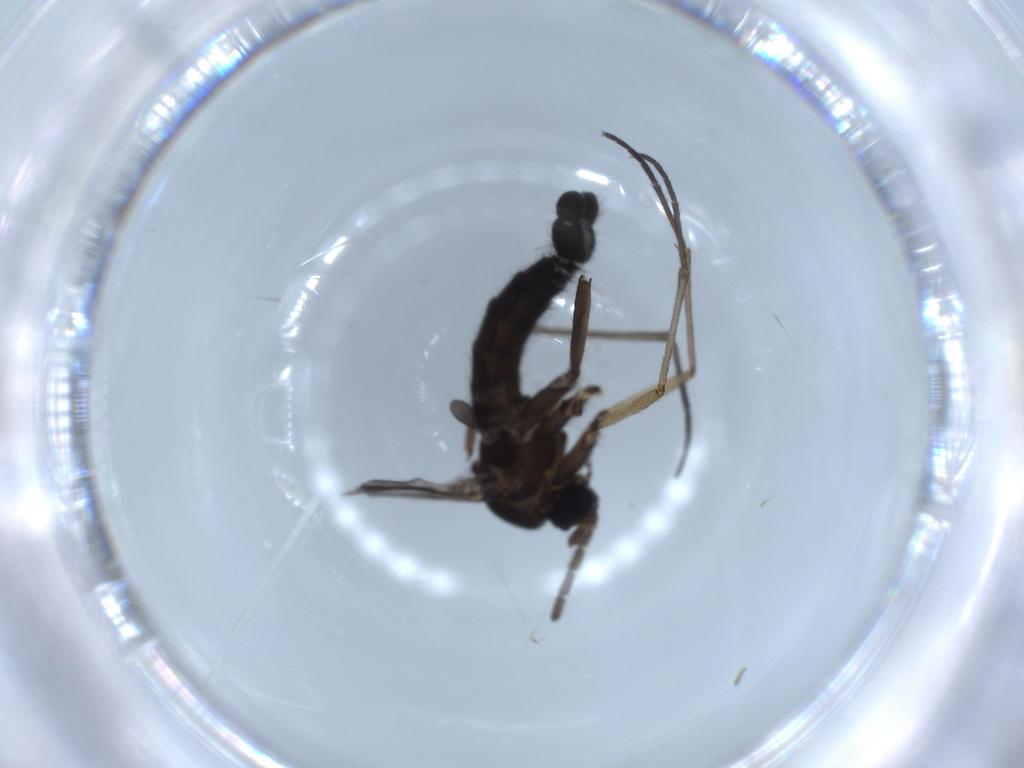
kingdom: Animalia
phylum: Arthropoda
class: Insecta
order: Diptera
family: Sciaridae
